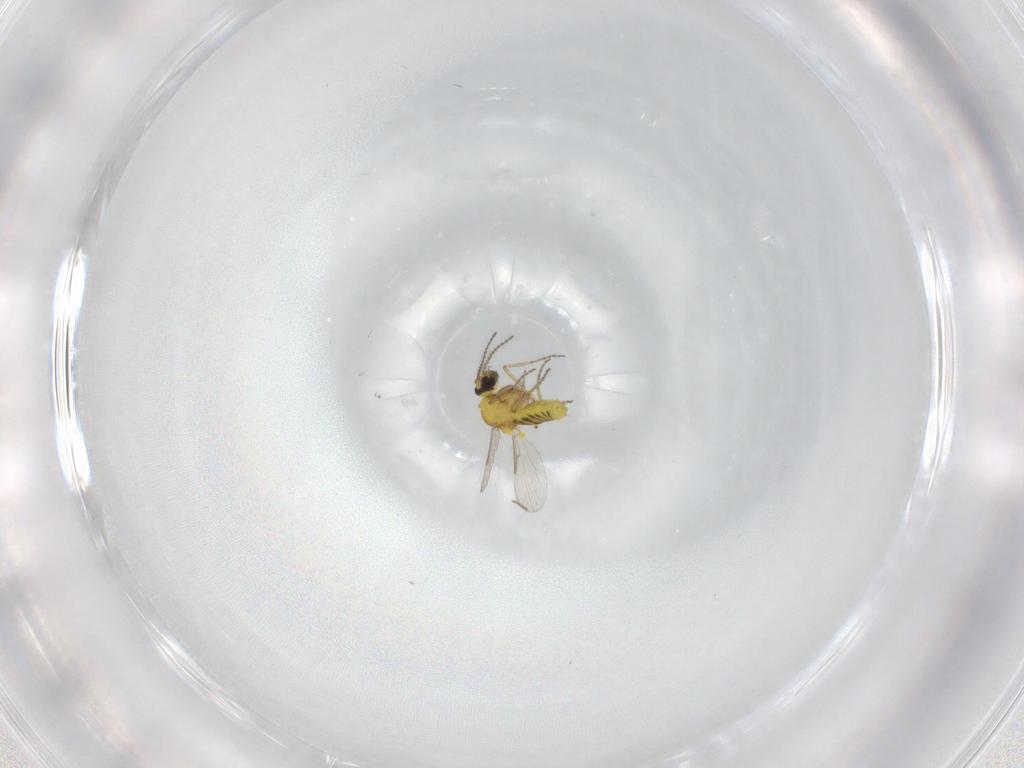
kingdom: Animalia
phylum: Arthropoda
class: Insecta
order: Diptera
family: Ceratopogonidae
